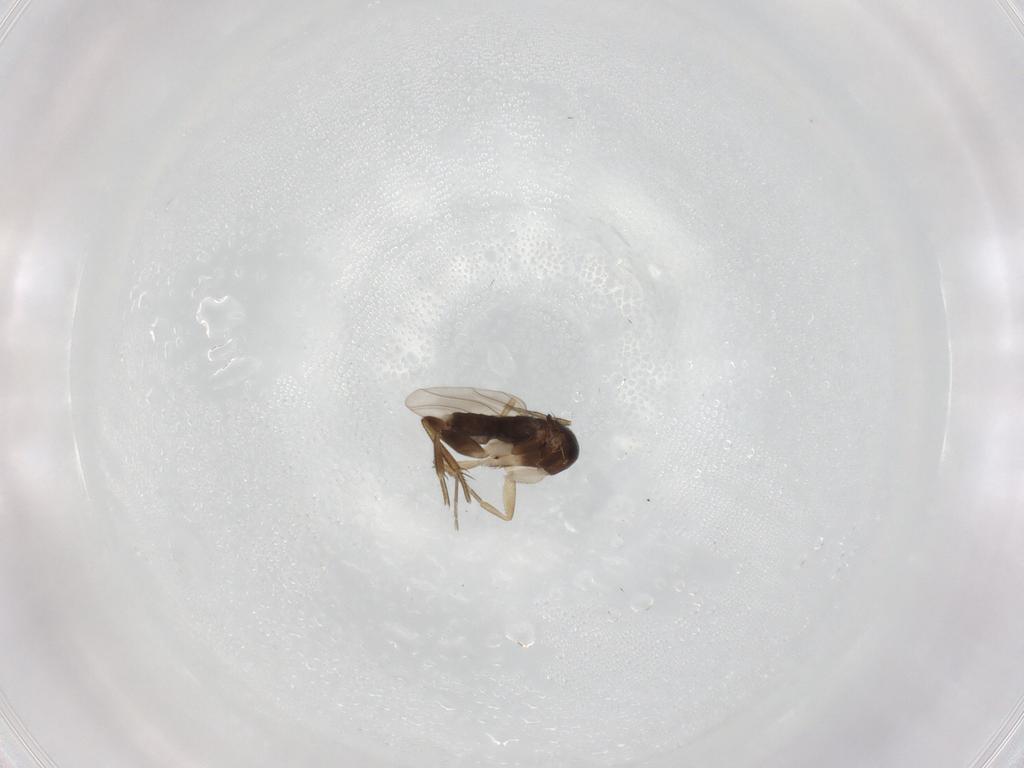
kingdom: Animalia
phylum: Arthropoda
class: Insecta
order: Diptera
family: Phoridae
